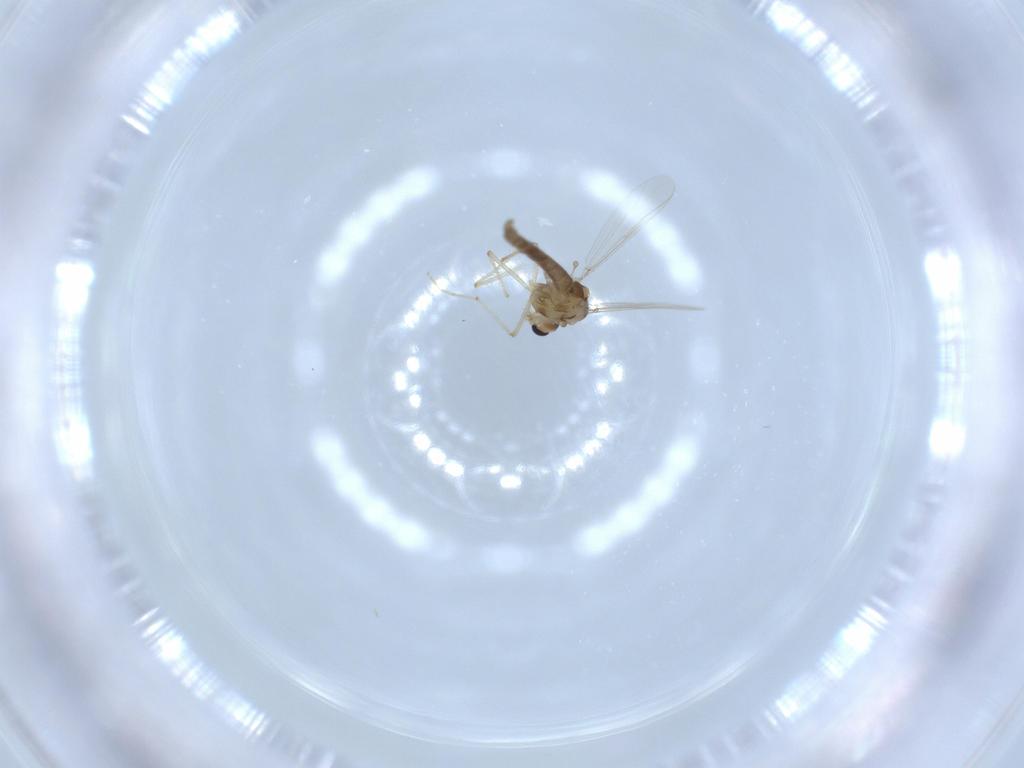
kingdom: Animalia
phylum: Arthropoda
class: Insecta
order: Diptera
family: Chironomidae
